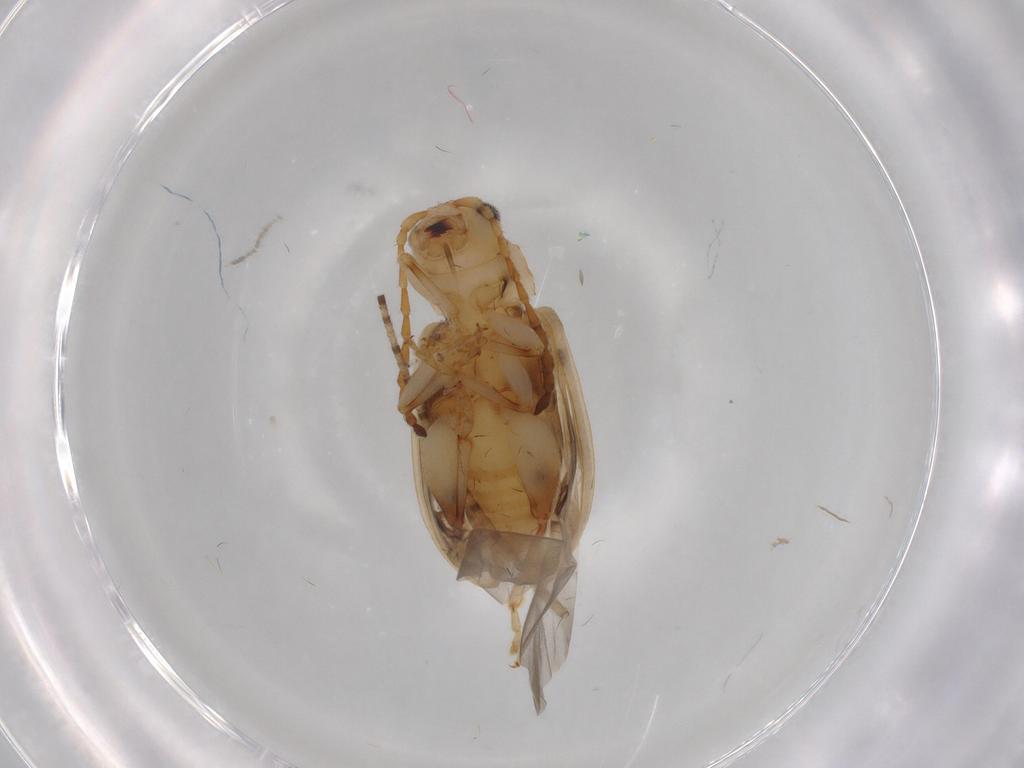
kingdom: Animalia
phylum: Arthropoda
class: Insecta
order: Coleoptera
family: Chrysomelidae
